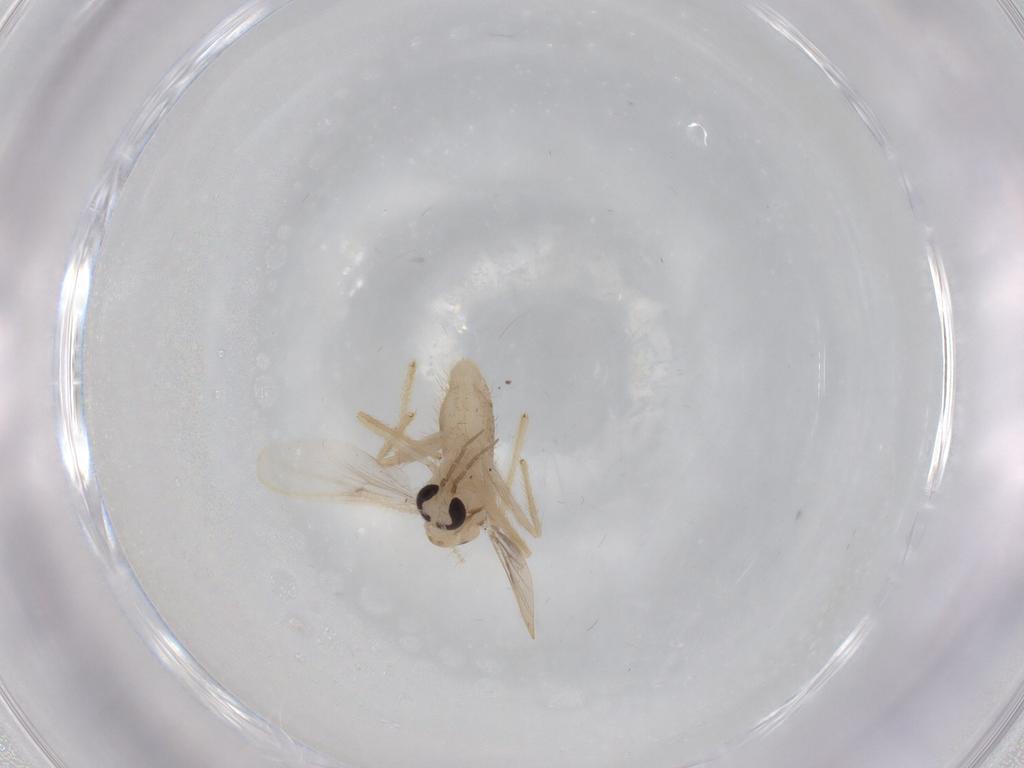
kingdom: Animalia
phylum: Arthropoda
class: Insecta
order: Diptera
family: Chironomidae
